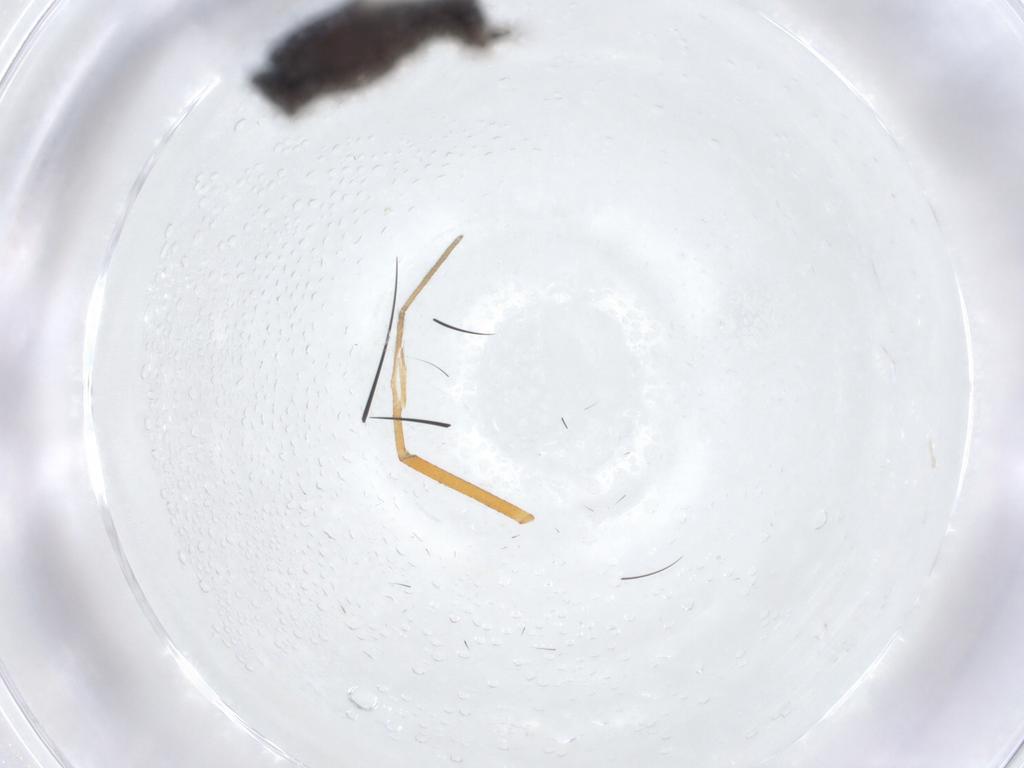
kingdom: Animalia
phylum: Arthropoda
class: Insecta
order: Diptera
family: Sphaeroceridae
